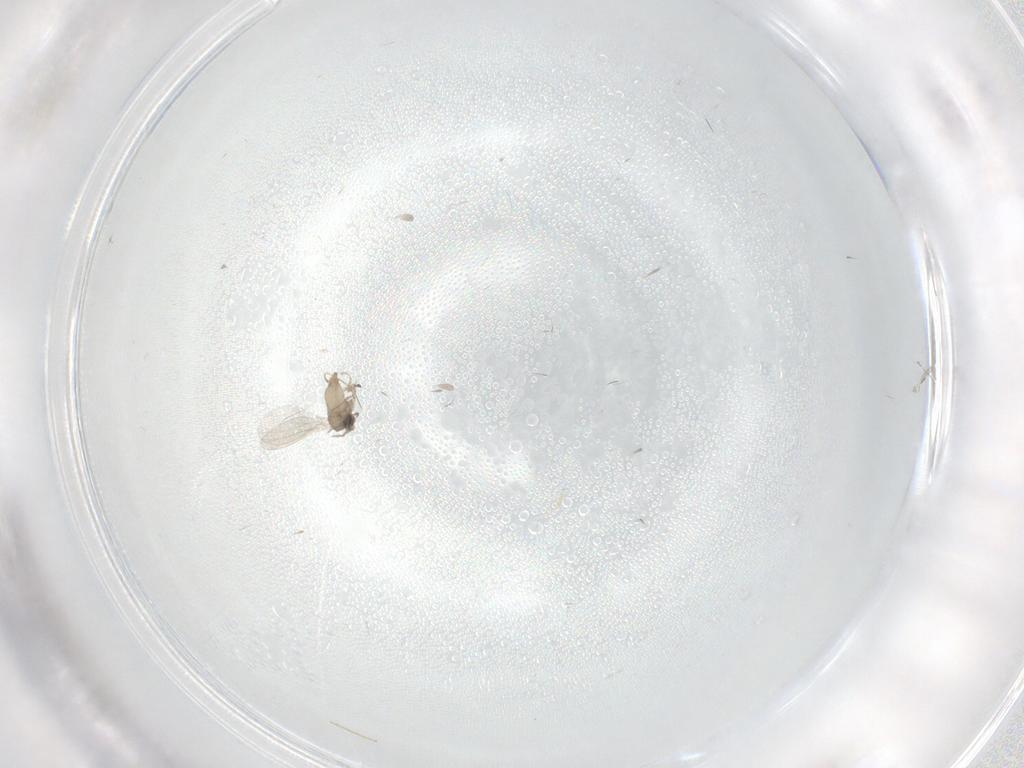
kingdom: Animalia
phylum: Arthropoda
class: Insecta
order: Diptera
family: Cecidomyiidae
